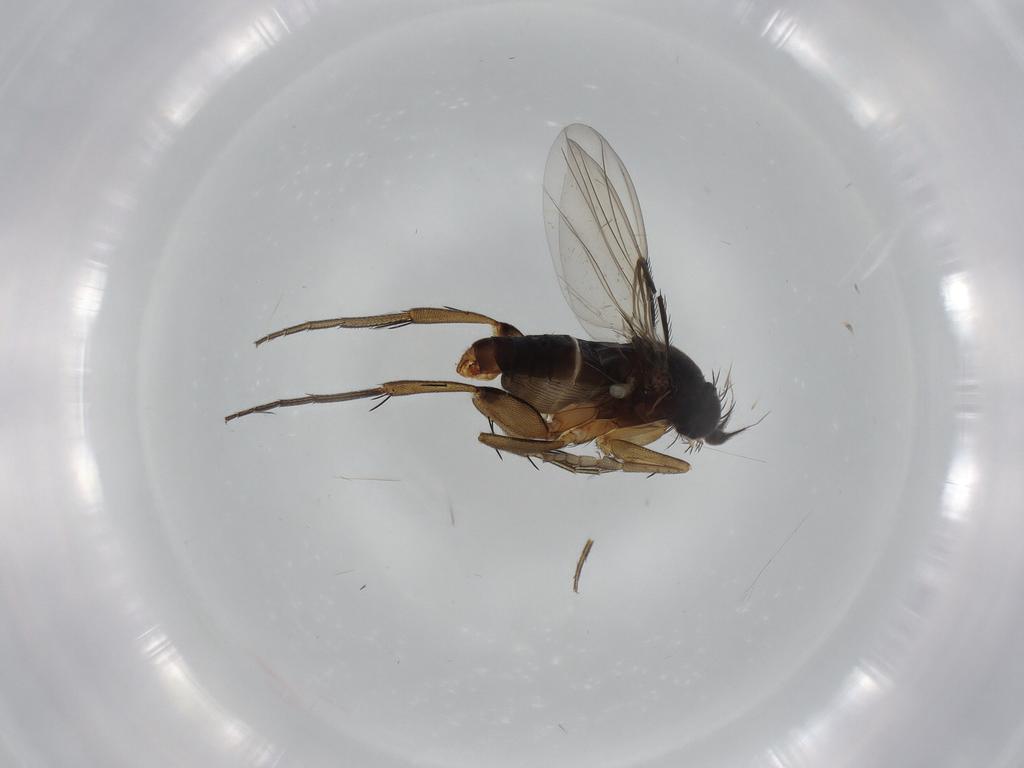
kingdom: Animalia
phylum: Arthropoda
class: Insecta
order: Diptera
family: Phoridae
